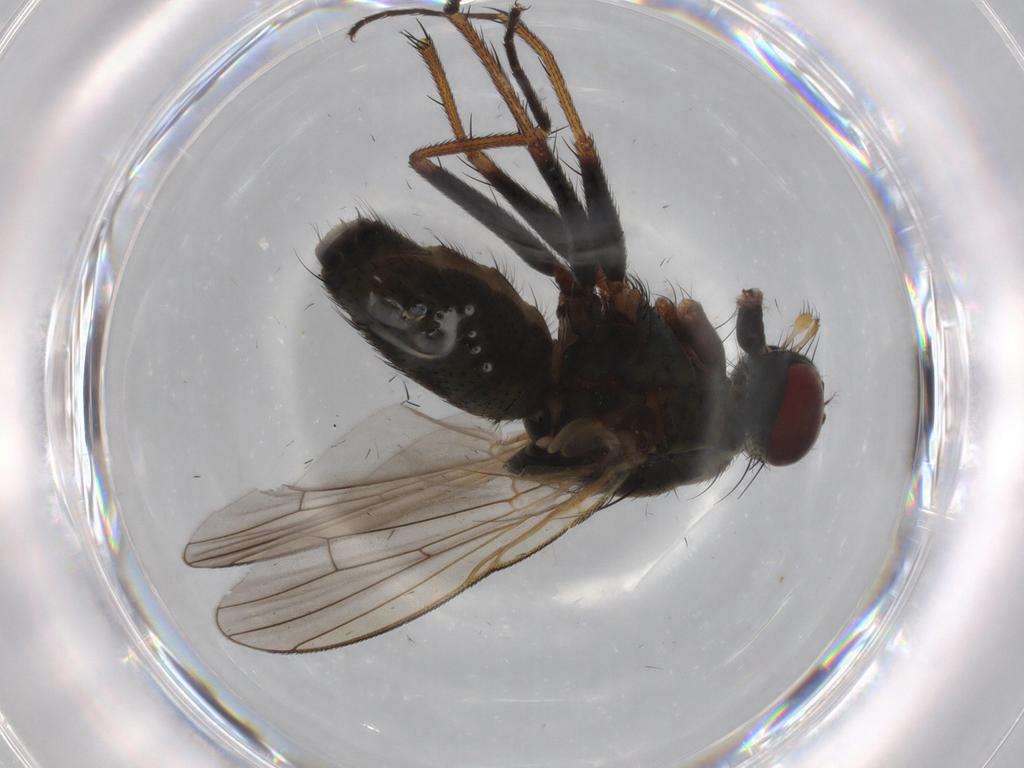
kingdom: Animalia
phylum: Arthropoda
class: Insecta
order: Diptera
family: Muscidae
